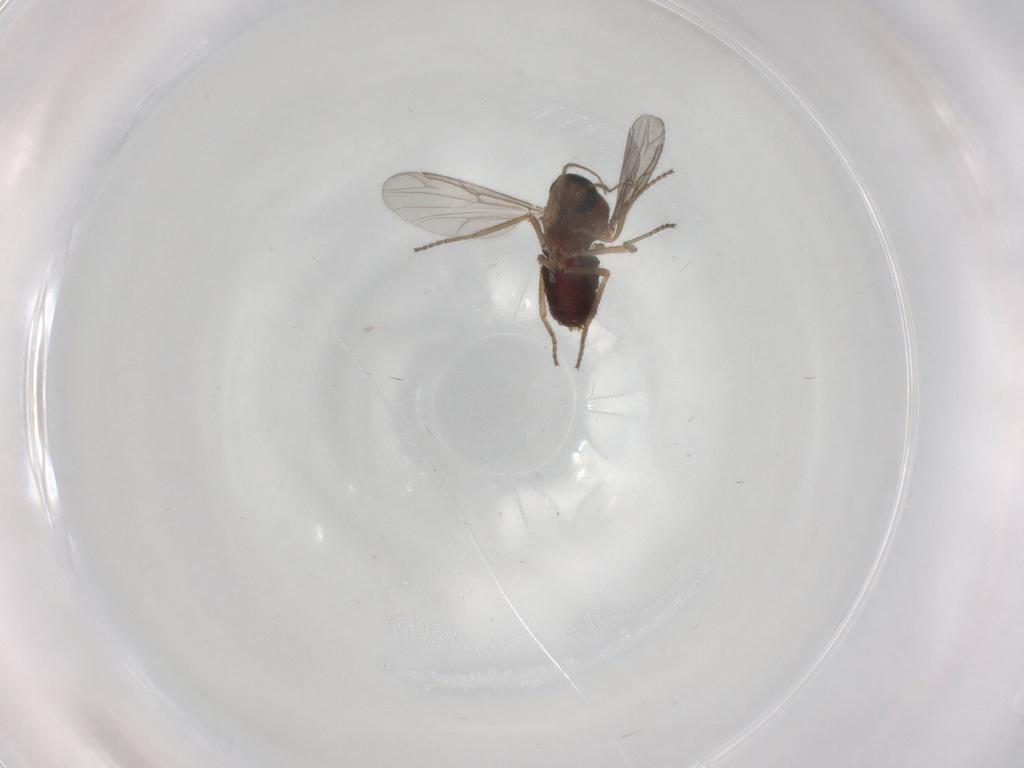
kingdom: Animalia
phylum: Arthropoda
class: Insecta
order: Diptera
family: Ceratopogonidae
